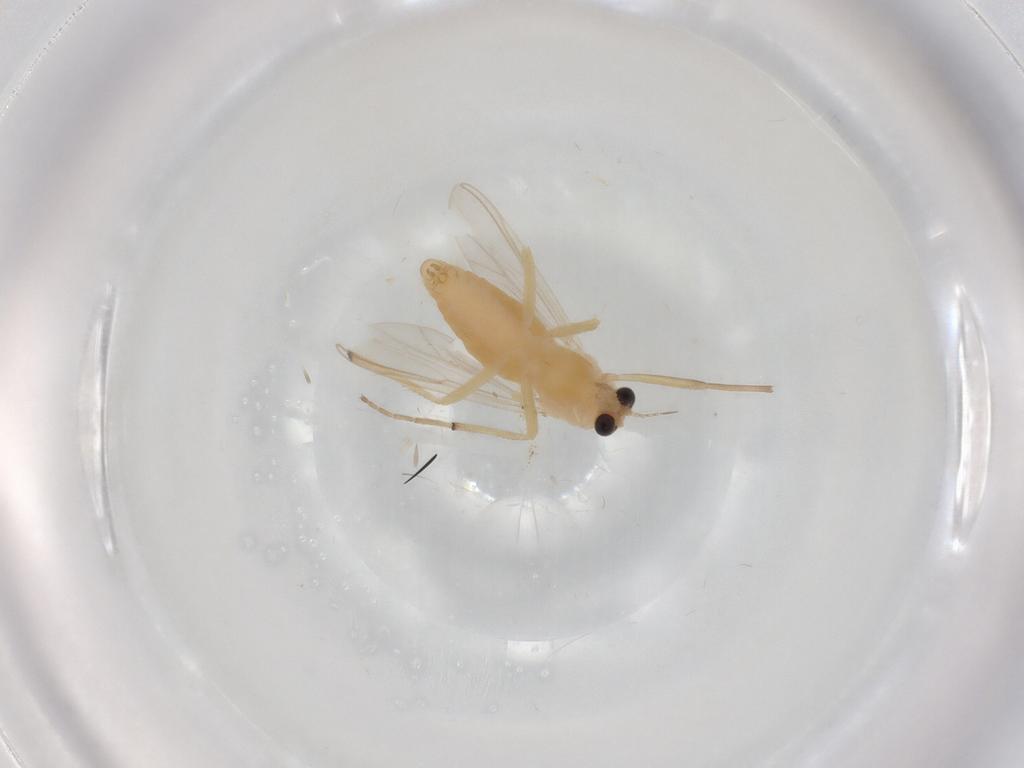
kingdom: Animalia
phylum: Arthropoda
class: Insecta
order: Diptera
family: Chironomidae
